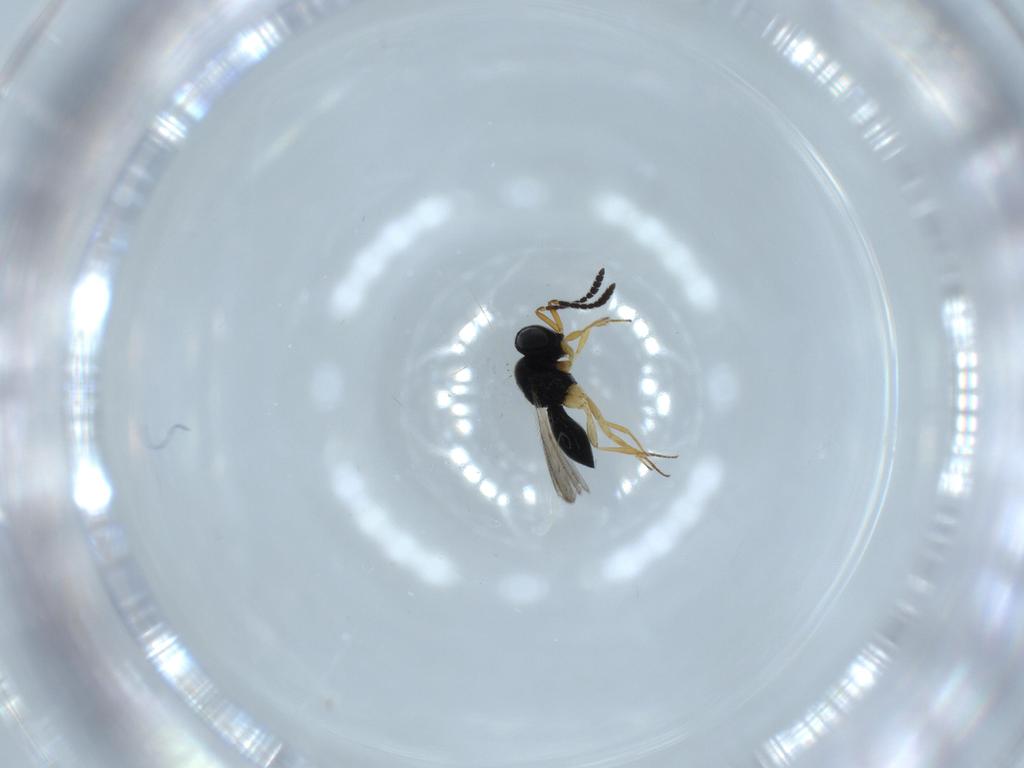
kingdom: Animalia
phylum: Arthropoda
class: Insecta
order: Hymenoptera
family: Scelionidae
